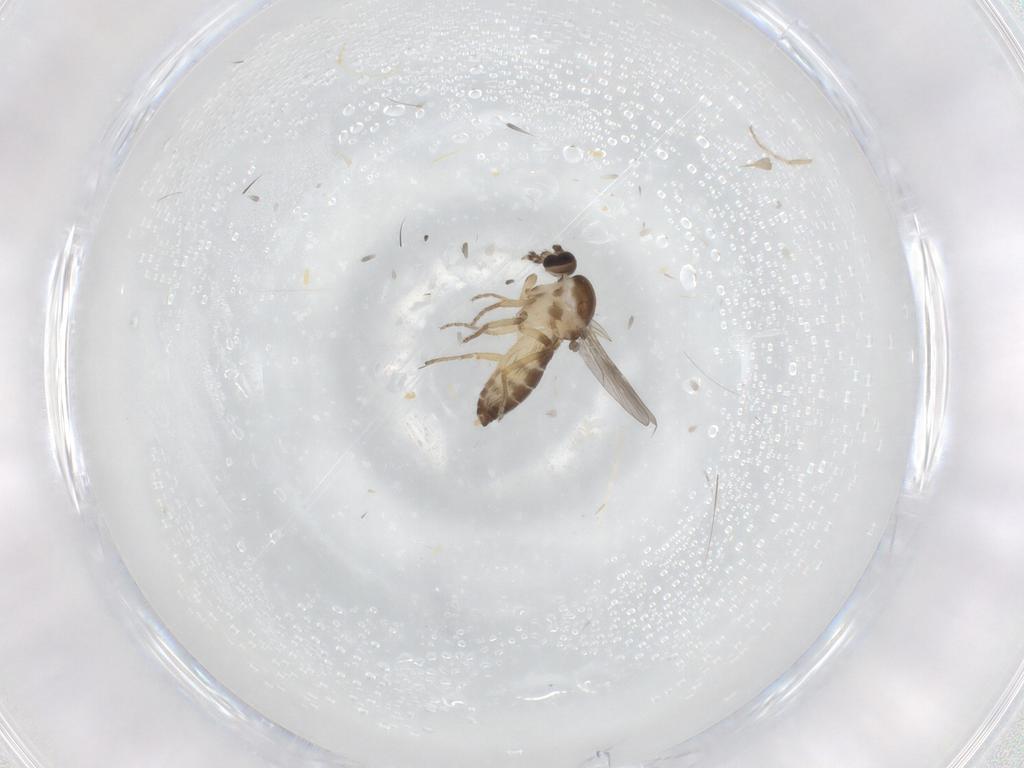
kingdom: Animalia
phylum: Arthropoda
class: Insecta
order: Diptera
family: Ceratopogonidae
